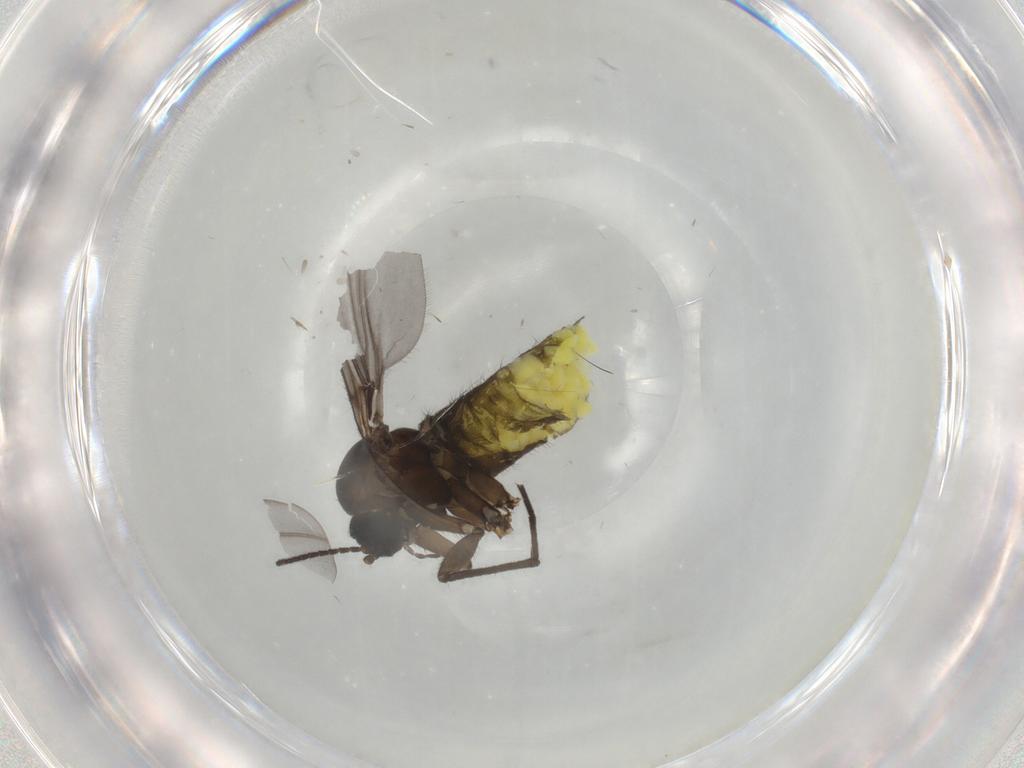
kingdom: Animalia
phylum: Arthropoda
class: Insecta
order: Diptera
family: Sciaridae
